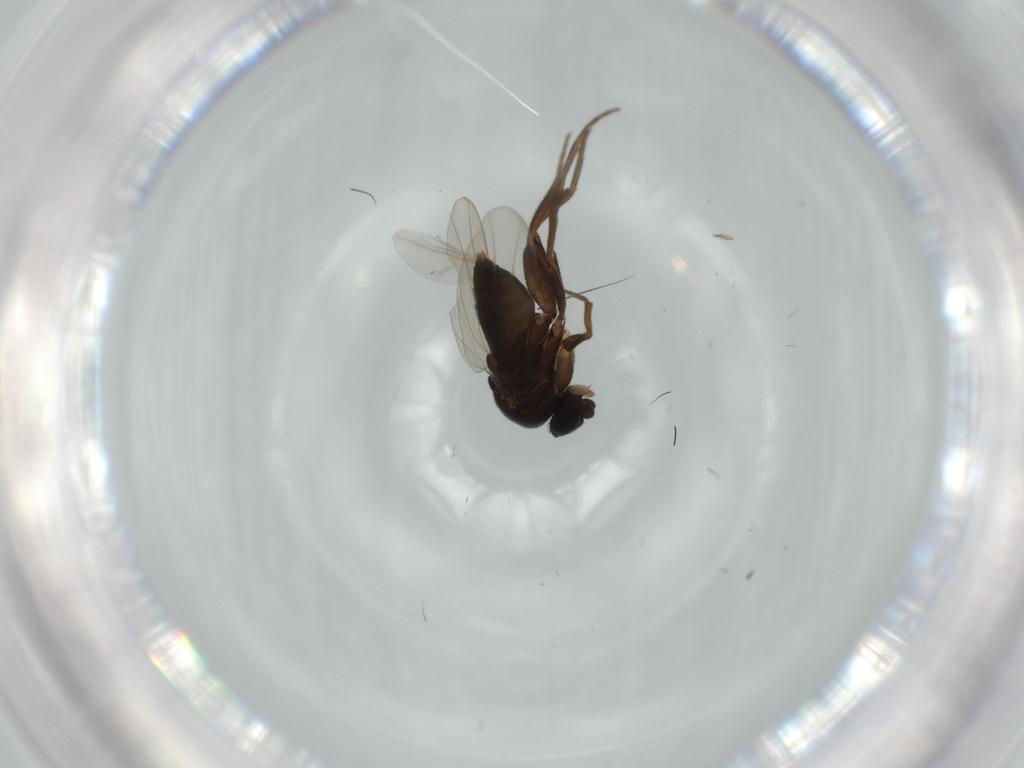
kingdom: Animalia
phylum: Arthropoda
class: Insecta
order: Diptera
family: Phoridae
